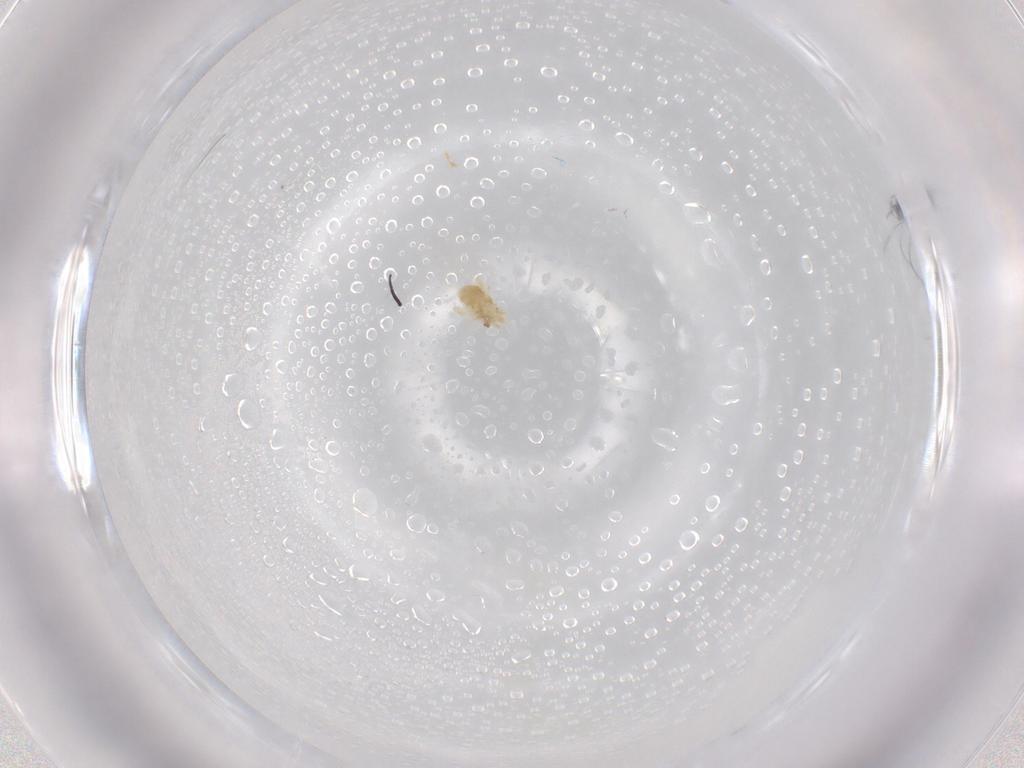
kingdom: Animalia
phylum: Arthropoda
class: Arachnida
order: Trombidiformes
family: Eupodidae
